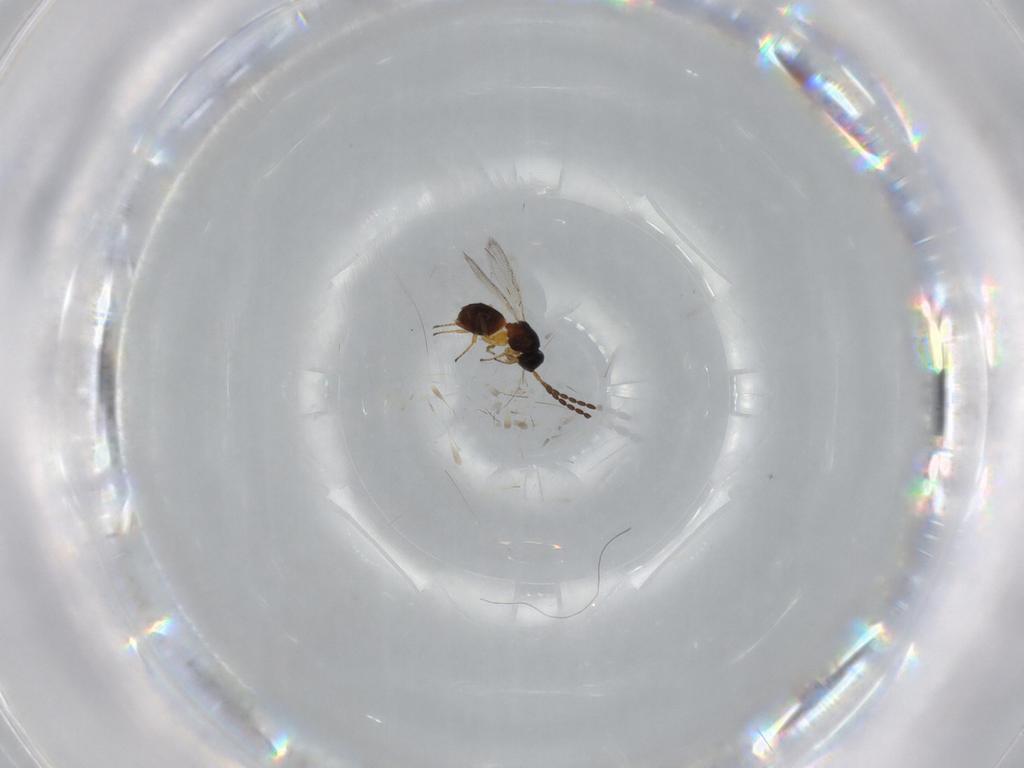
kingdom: Animalia
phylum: Arthropoda
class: Insecta
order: Hymenoptera
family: Figitidae
